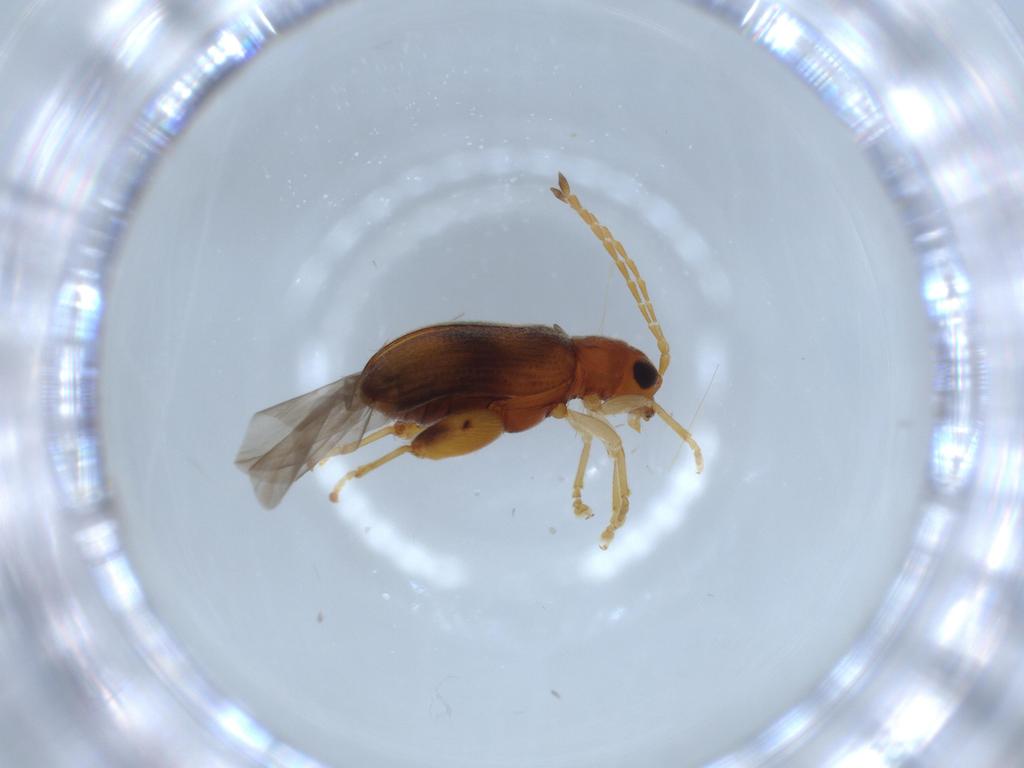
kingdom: Animalia
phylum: Arthropoda
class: Insecta
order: Coleoptera
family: Chrysomelidae
